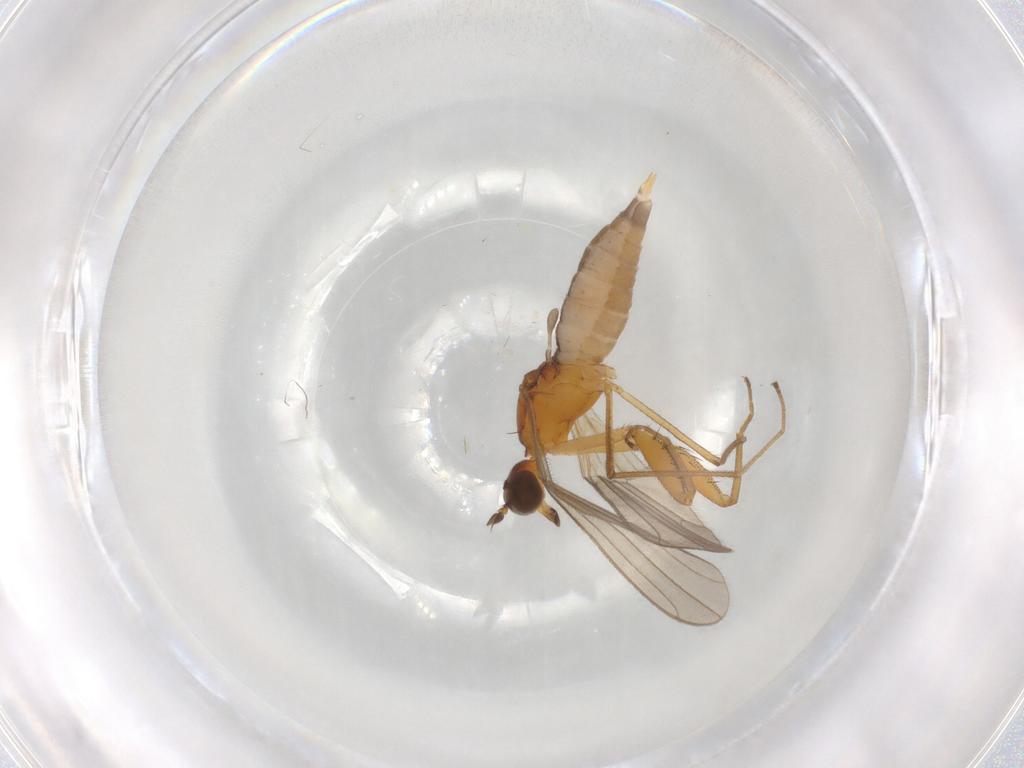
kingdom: Animalia
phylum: Arthropoda
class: Insecta
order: Diptera
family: Empididae
